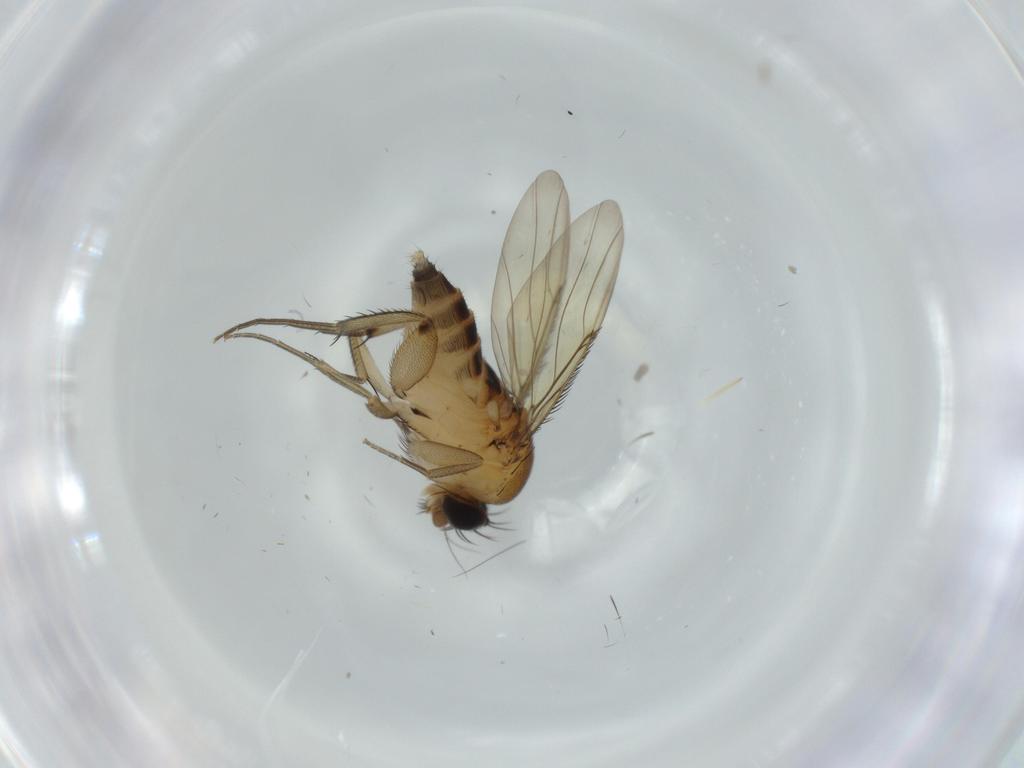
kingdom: Animalia
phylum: Arthropoda
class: Insecta
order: Diptera
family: Phoridae
